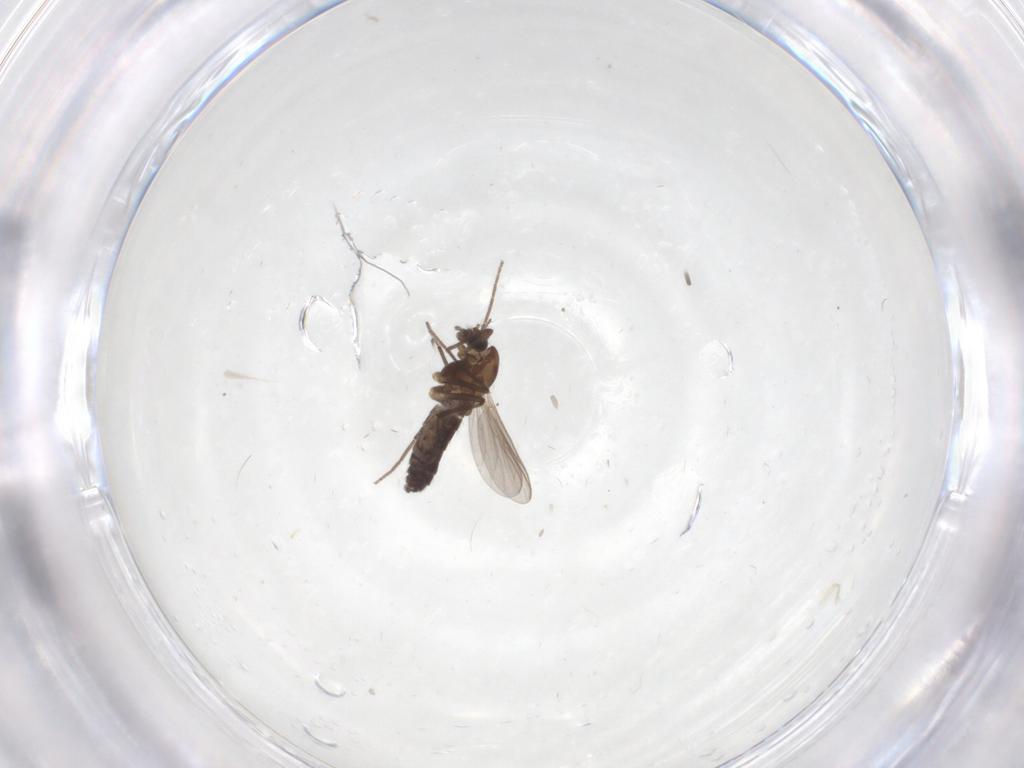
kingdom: Animalia
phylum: Arthropoda
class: Insecta
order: Diptera
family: Chironomidae
